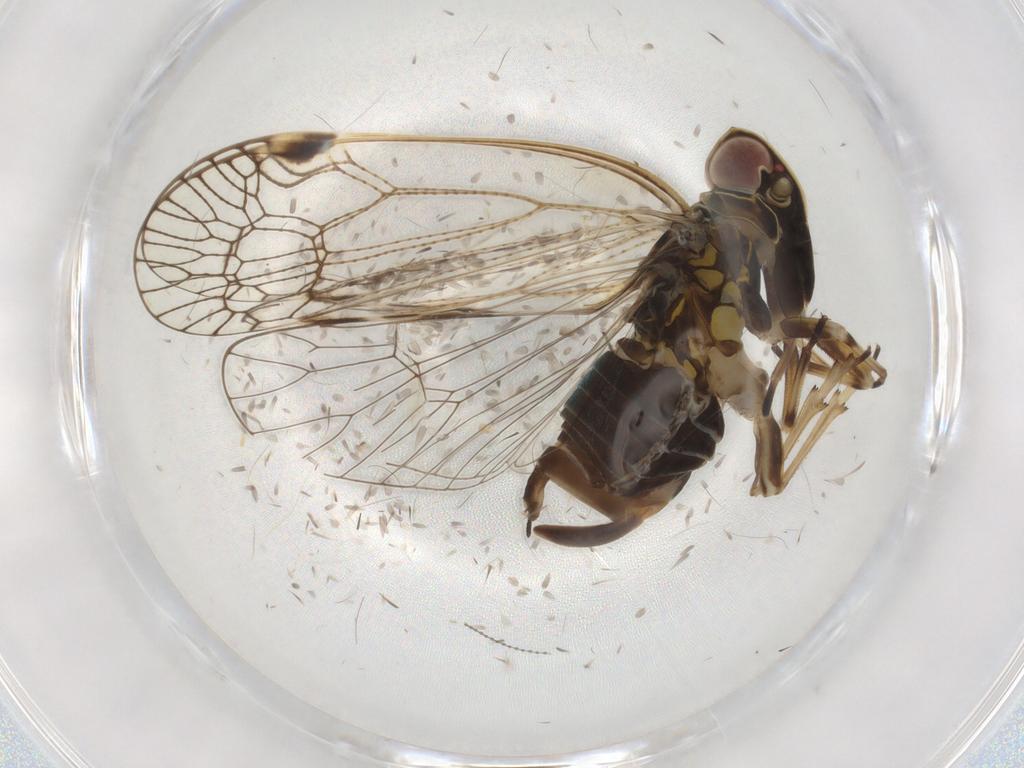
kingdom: Animalia
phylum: Arthropoda
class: Insecta
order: Hemiptera
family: Cixiidae
